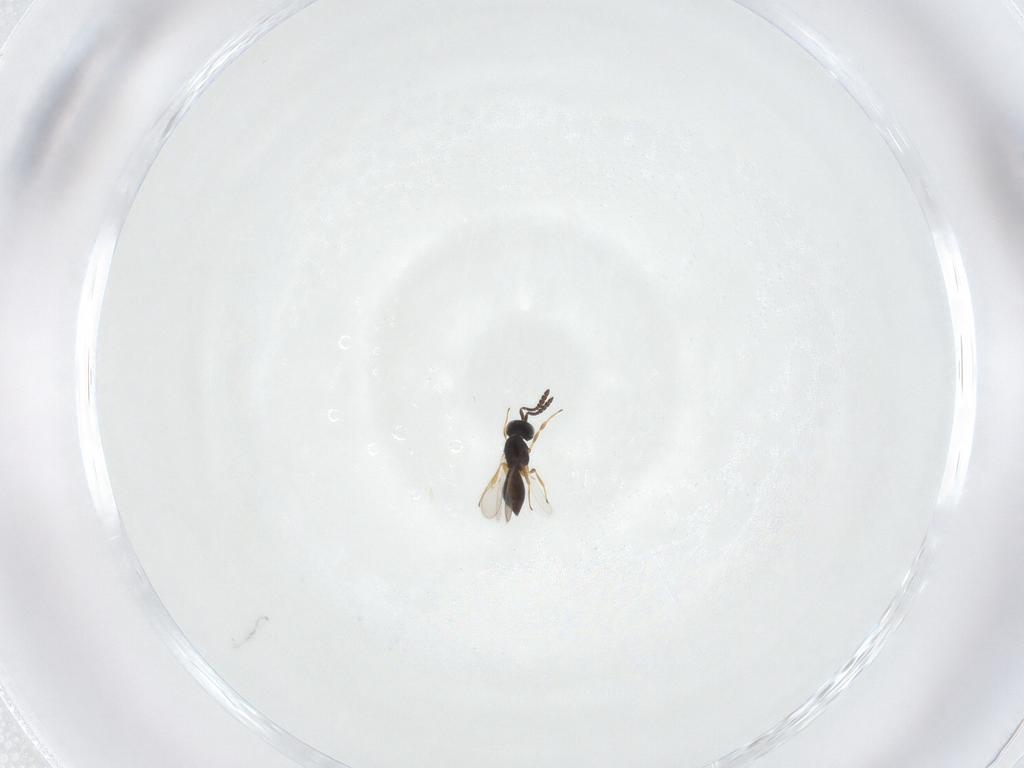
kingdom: Animalia
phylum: Arthropoda
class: Insecta
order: Hymenoptera
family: Scelionidae
